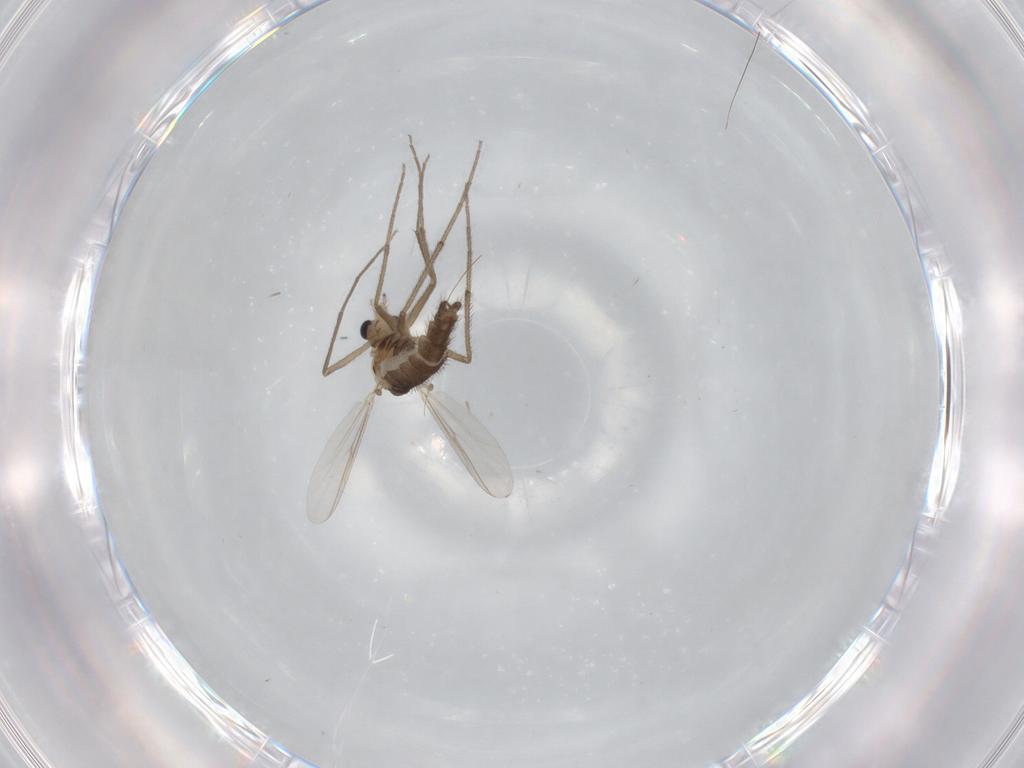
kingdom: Animalia
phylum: Arthropoda
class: Insecta
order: Diptera
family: Chironomidae
